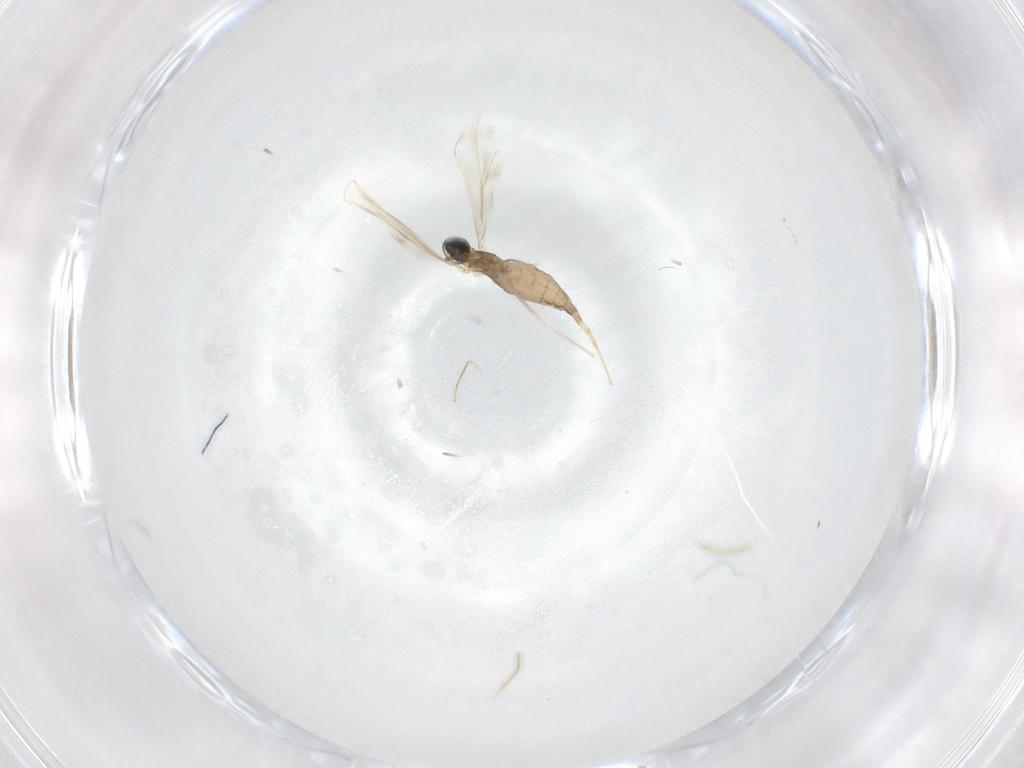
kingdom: Animalia
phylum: Arthropoda
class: Insecta
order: Diptera
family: Cecidomyiidae
